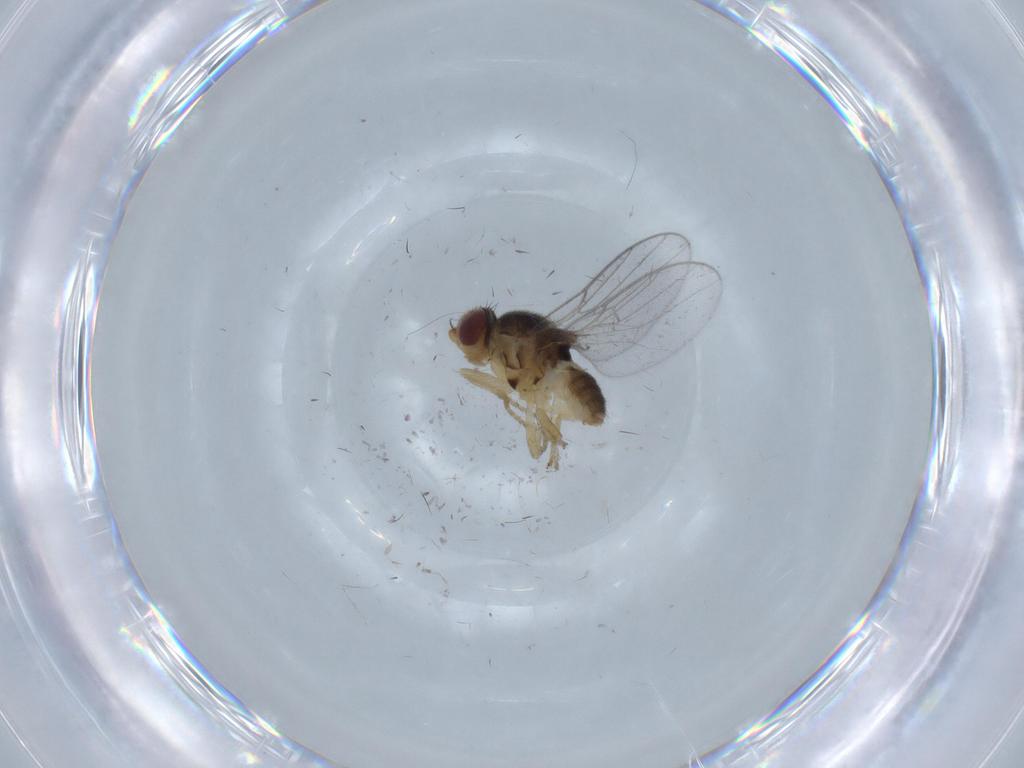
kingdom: Animalia
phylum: Arthropoda
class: Insecta
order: Diptera
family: Chloropidae
